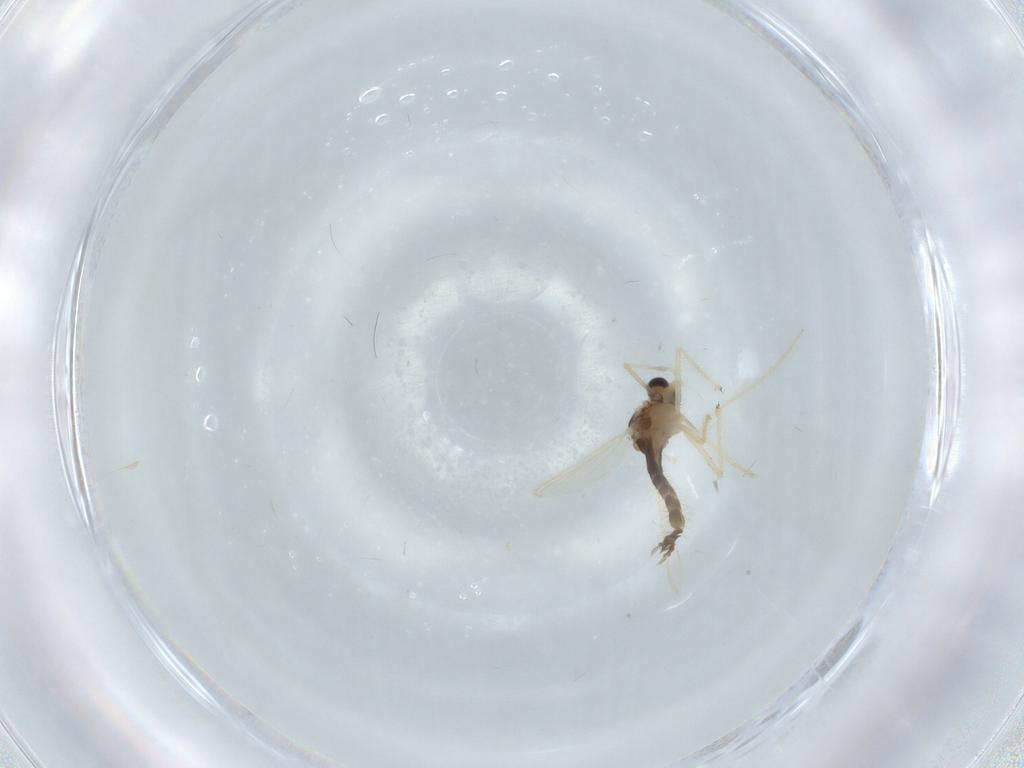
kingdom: Animalia
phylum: Arthropoda
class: Insecta
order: Diptera
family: Chironomidae
